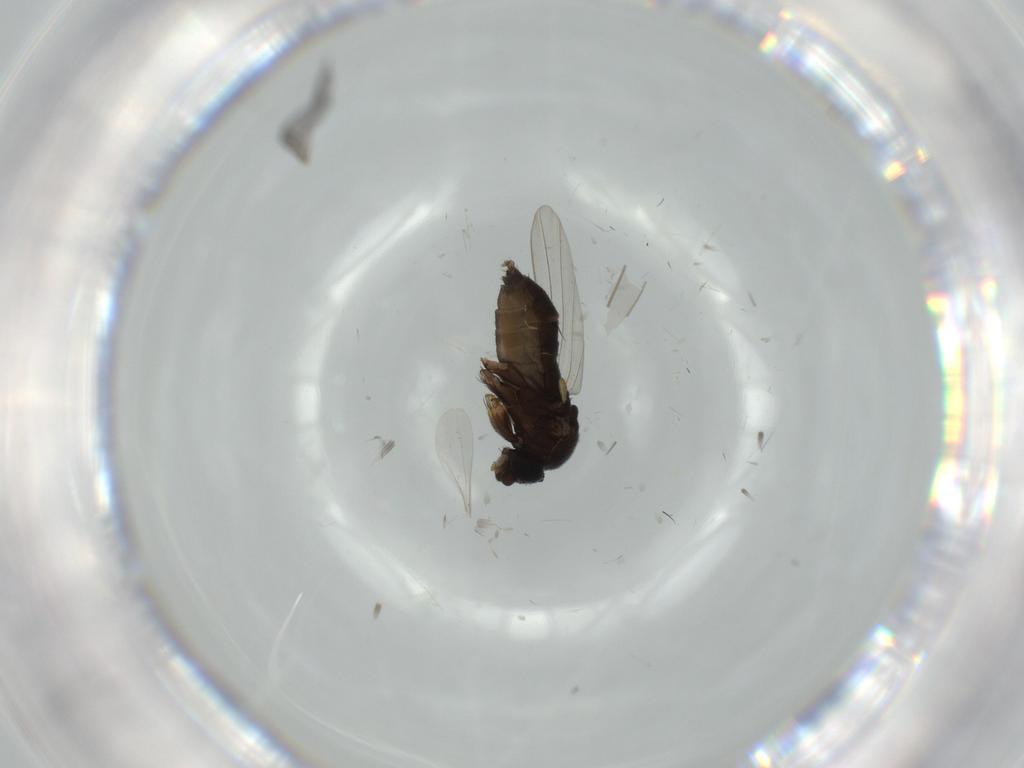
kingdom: Animalia
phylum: Arthropoda
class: Insecta
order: Diptera
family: Phoridae
